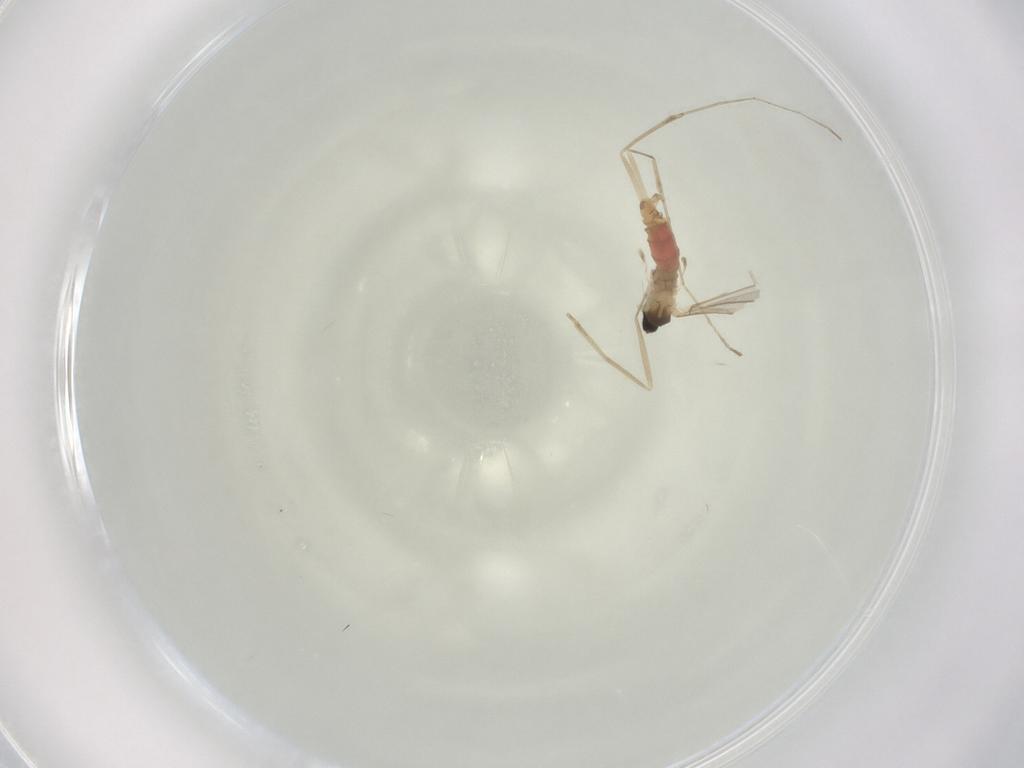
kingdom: Animalia
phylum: Arthropoda
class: Insecta
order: Diptera
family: Cecidomyiidae
